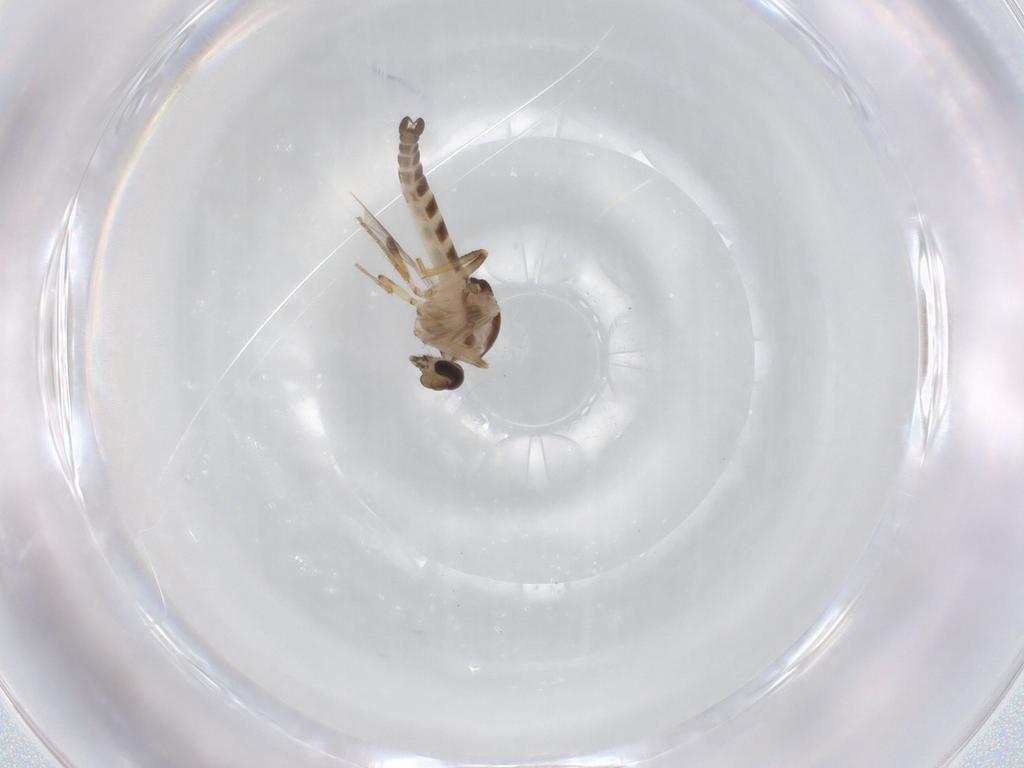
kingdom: Animalia
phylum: Arthropoda
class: Insecta
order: Diptera
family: Ceratopogonidae
